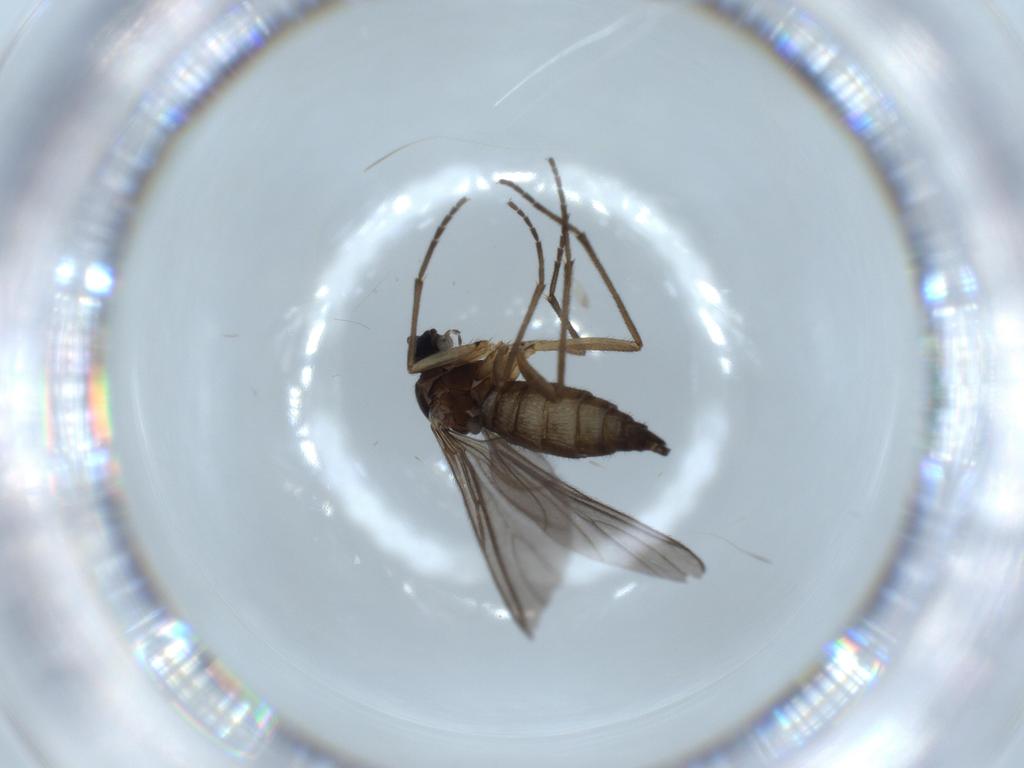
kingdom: Animalia
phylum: Arthropoda
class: Insecta
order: Diptera
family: Sciaridae
